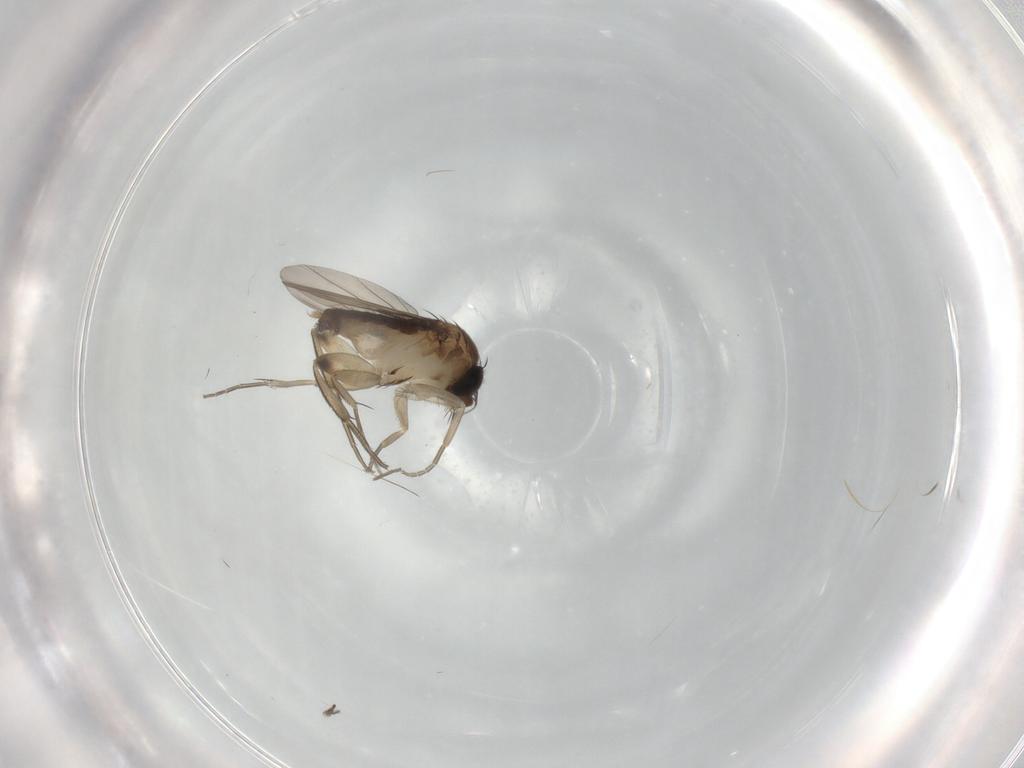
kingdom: Animalia
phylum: Arthropoda
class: Insecta
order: Diptera
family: Phoridae
